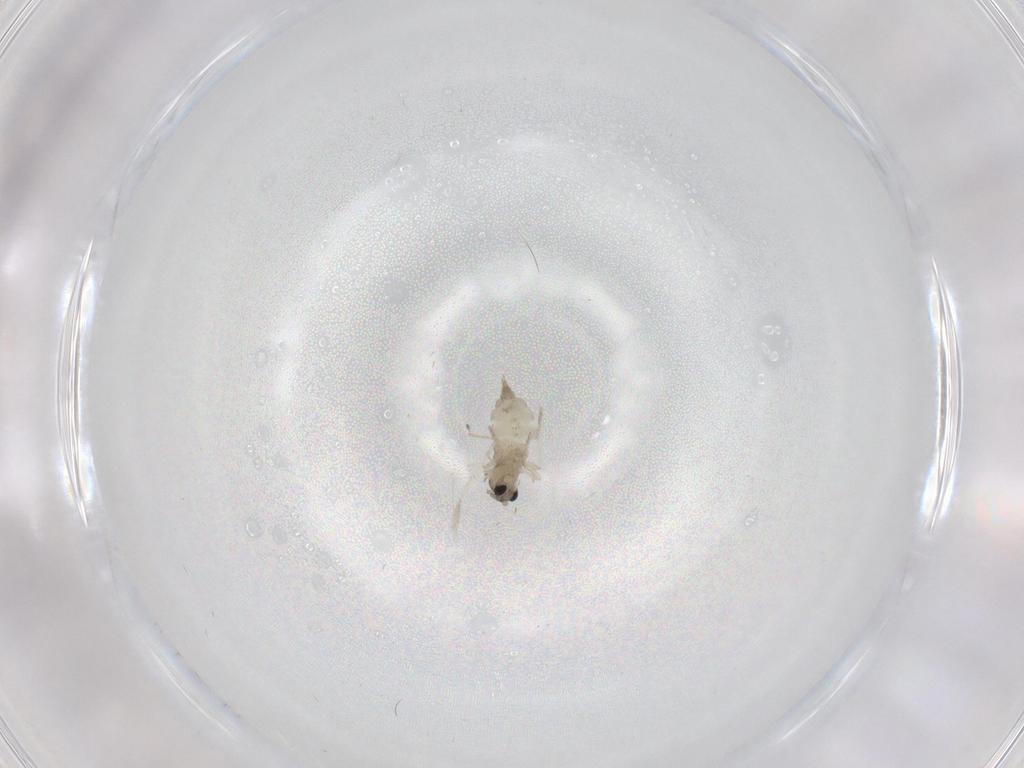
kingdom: Animalia
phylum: Arthropoda
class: Insecta
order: Diptera
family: Cecidomyiidae
